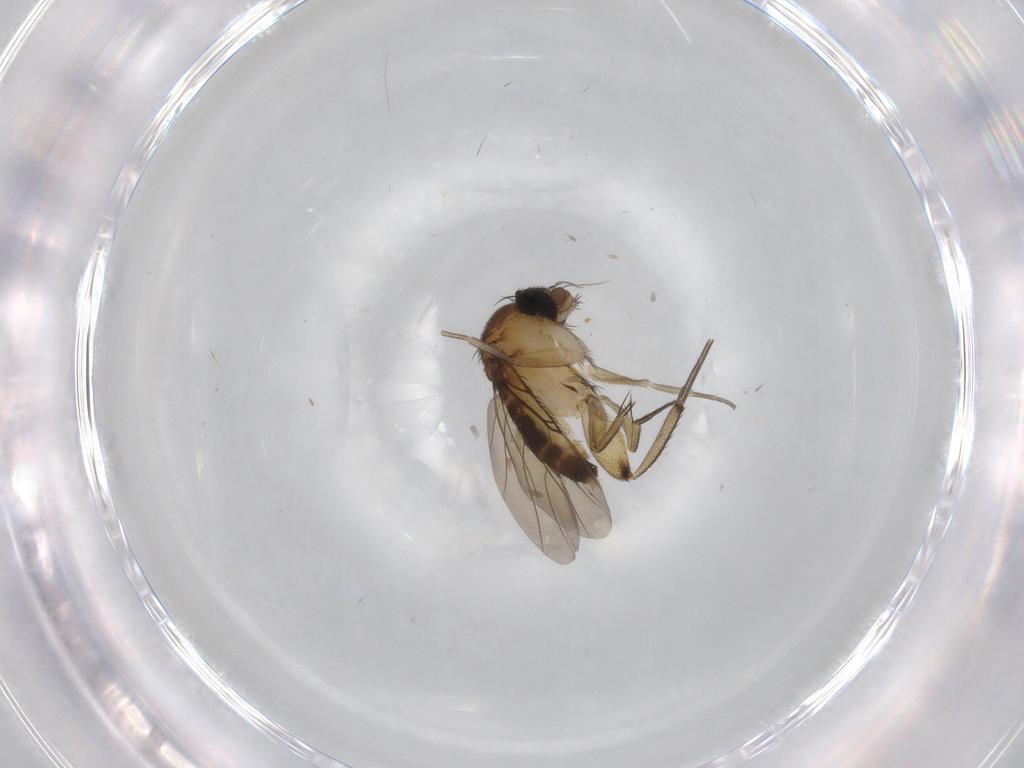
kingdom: Animalia
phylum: Arthropoda
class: Insecta
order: Diptera
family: Phoridae
